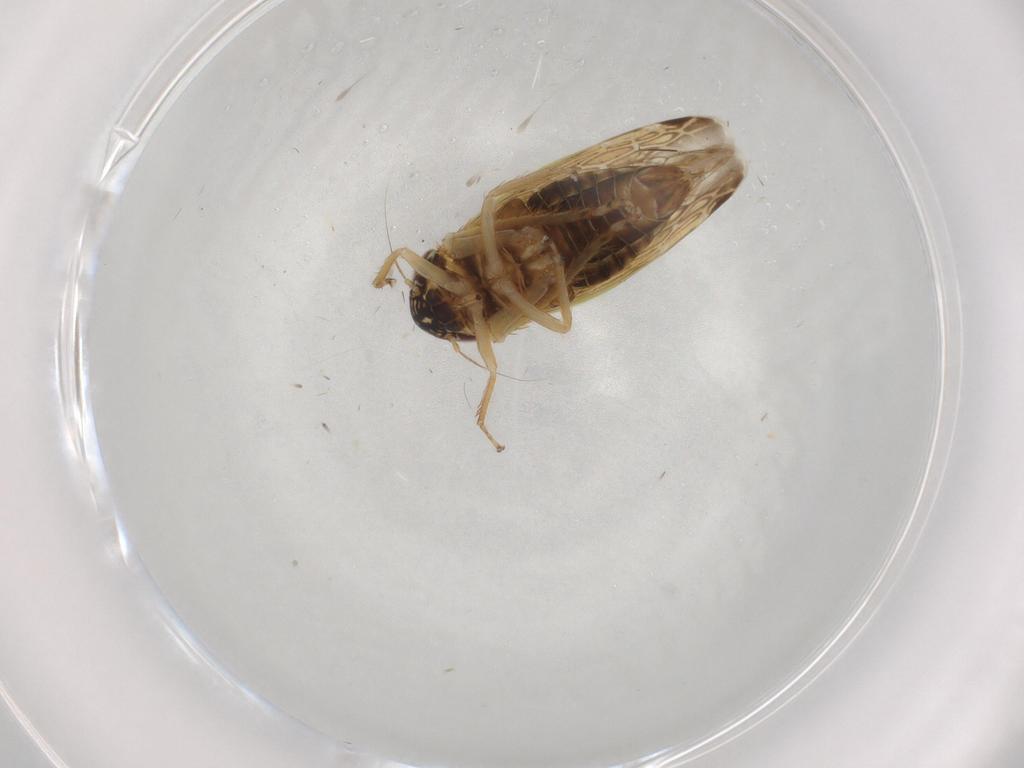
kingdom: Animalia
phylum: Arthropoda
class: Insecta
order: Hemiptera
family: Cicadellidae
